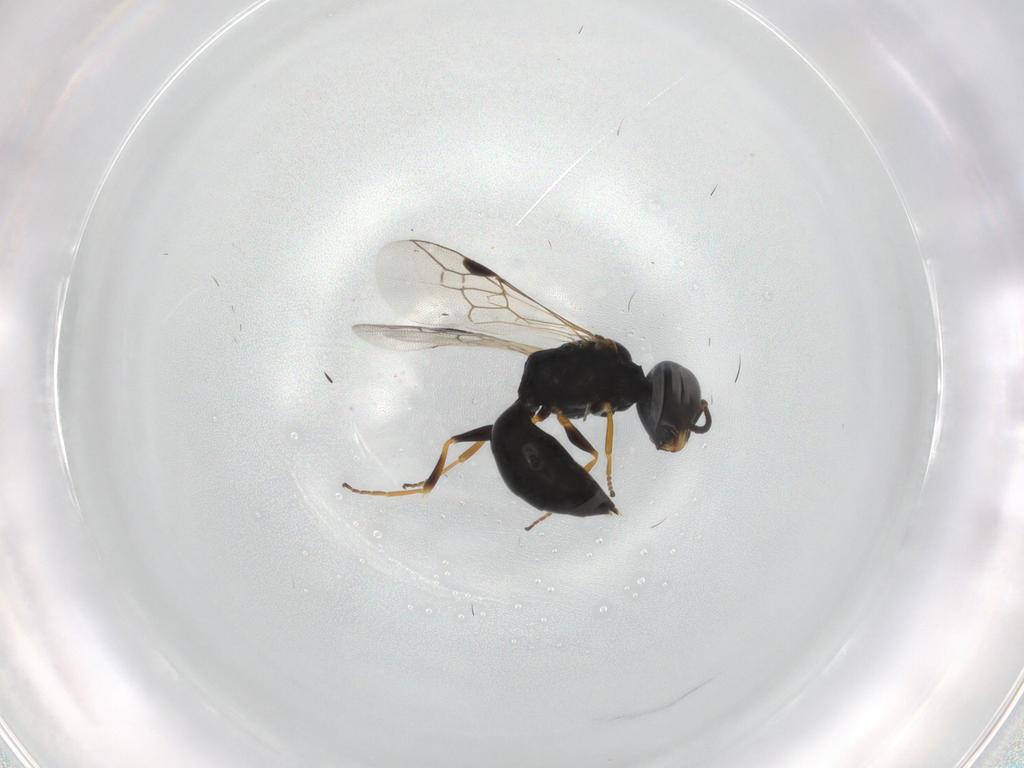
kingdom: Animalia
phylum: Arthropoda
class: Insecta
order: Hymenoptera
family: Pemphredonidae
